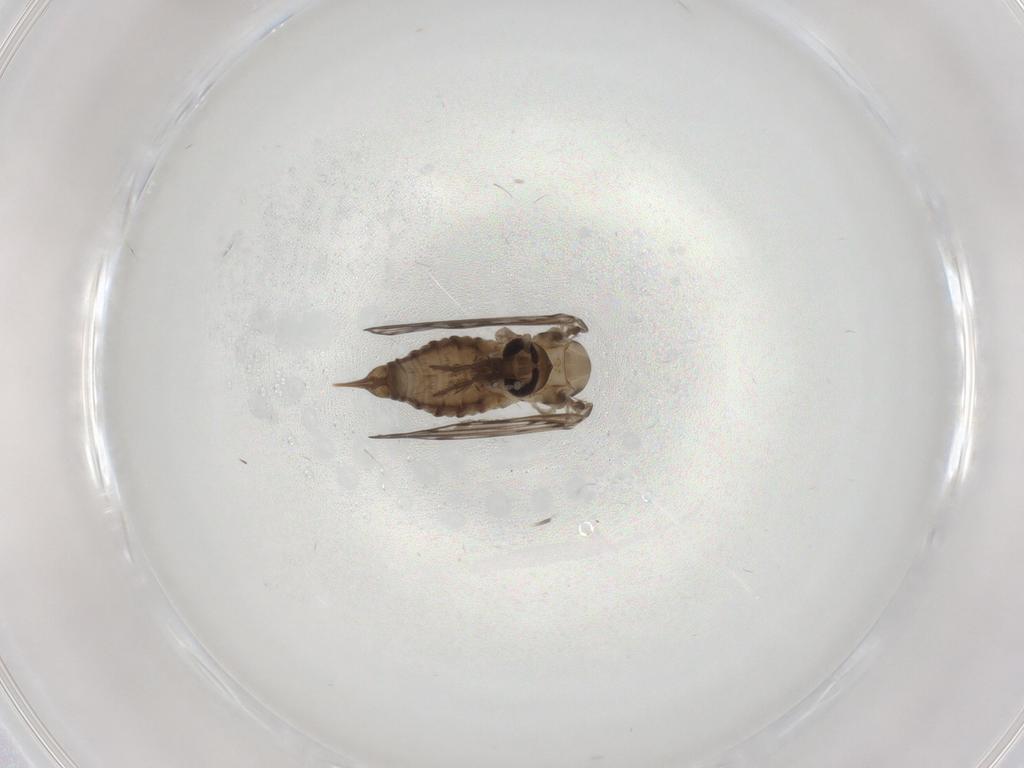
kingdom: Animalia
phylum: Arthropoda
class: Insecta
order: Diptera
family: Psychodidae
